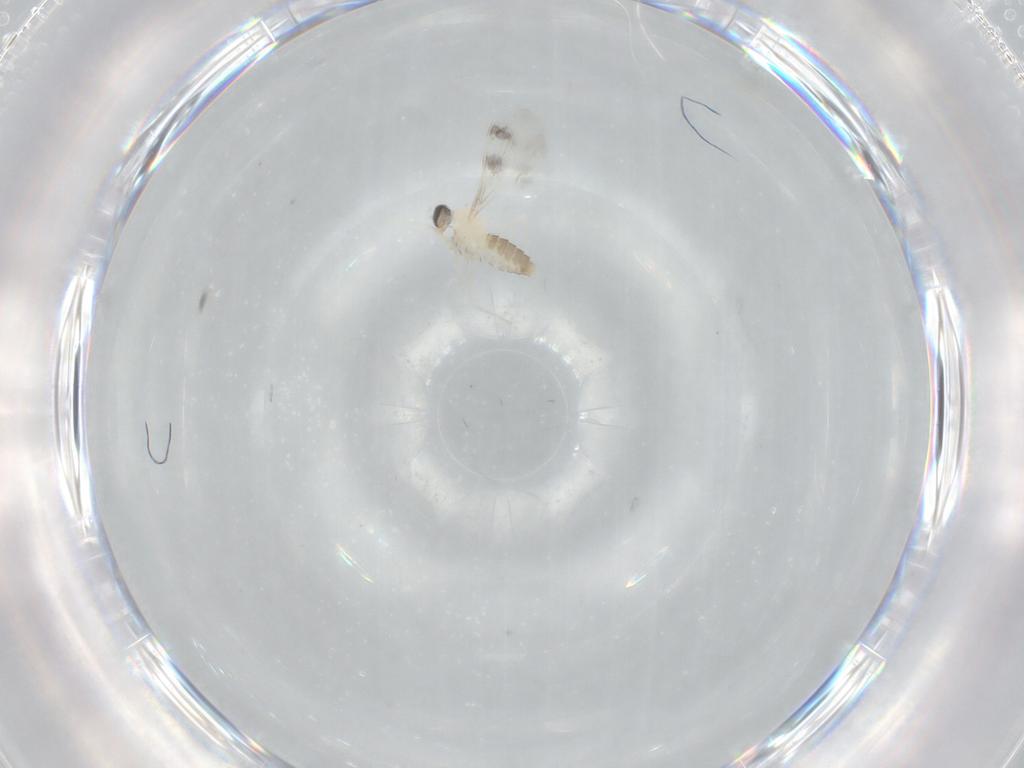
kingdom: Animalia
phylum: Arthropoda
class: Insecta
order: Diptera
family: Cecidomyiidae
